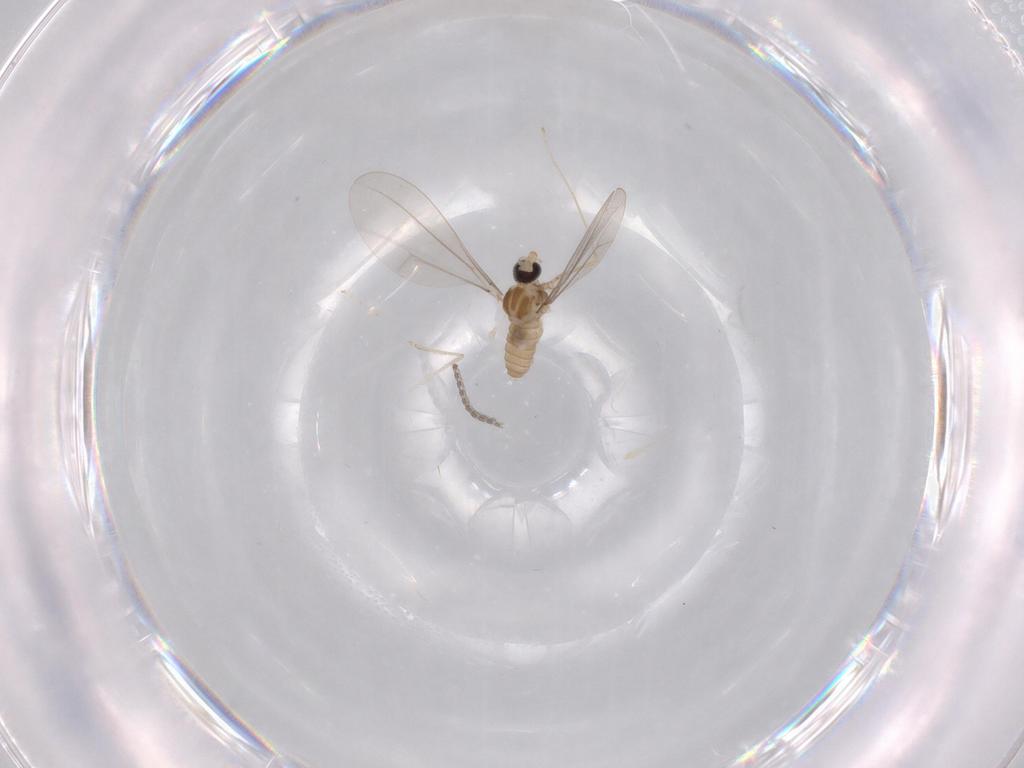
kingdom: Animalia
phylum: Arthropoda
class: Insecta
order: Diptera
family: Cecidomyiidae
